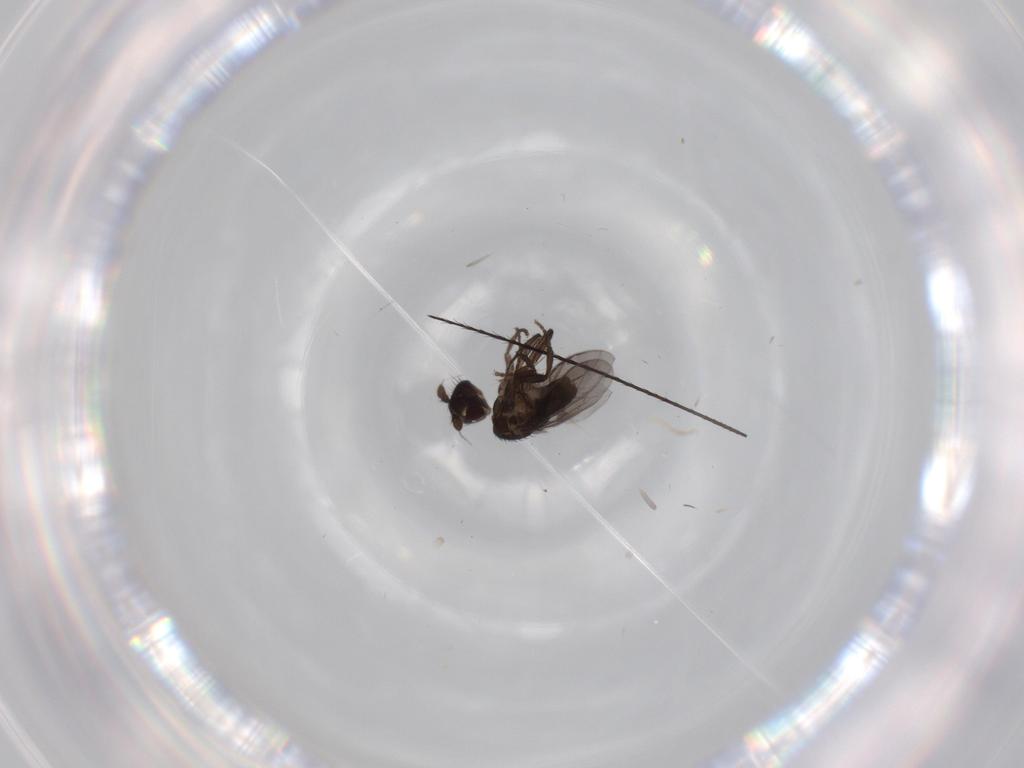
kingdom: Animalia
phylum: Arthropoda
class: Insecta
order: Diptera
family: Sphaeroceridae
